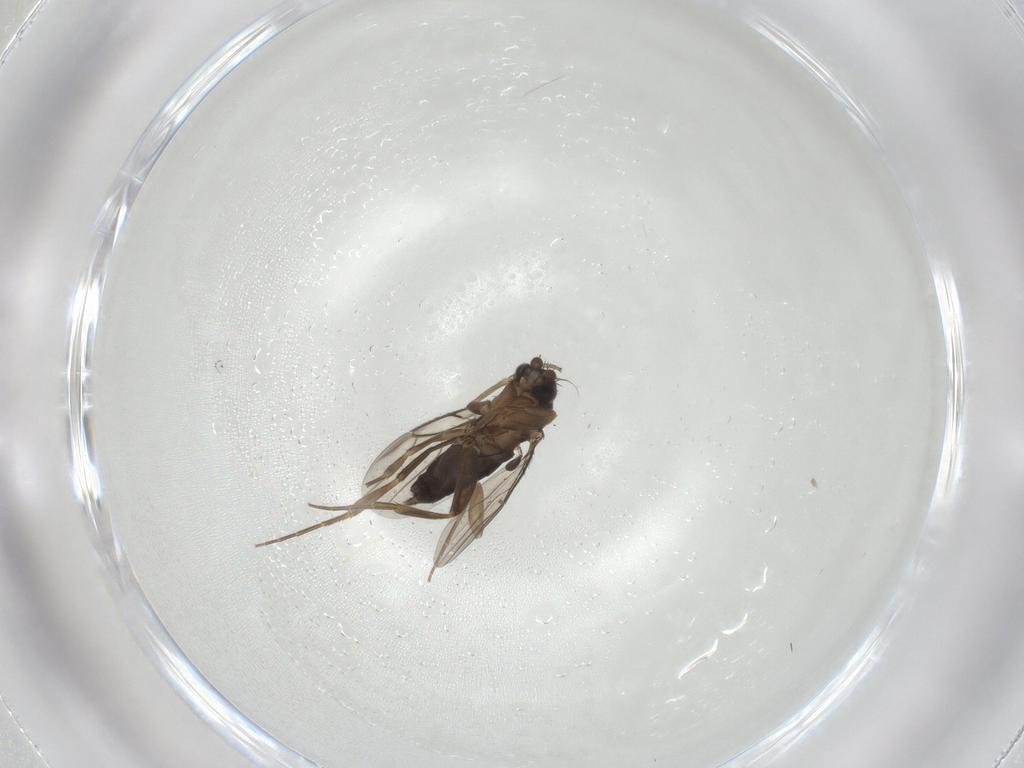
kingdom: Animalia
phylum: Arthropoda
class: Insecta
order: Diptera
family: Phoridae
